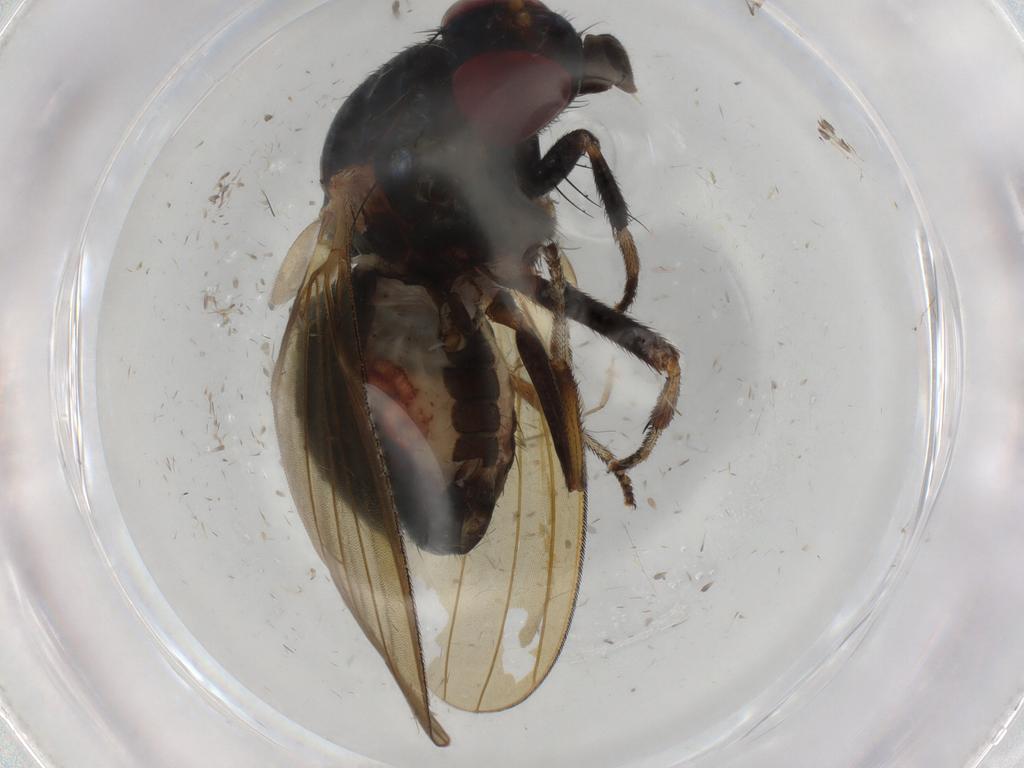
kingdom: Animalia
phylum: Arthropoda
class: Insecta
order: Diptera
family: Lauxaniidae
